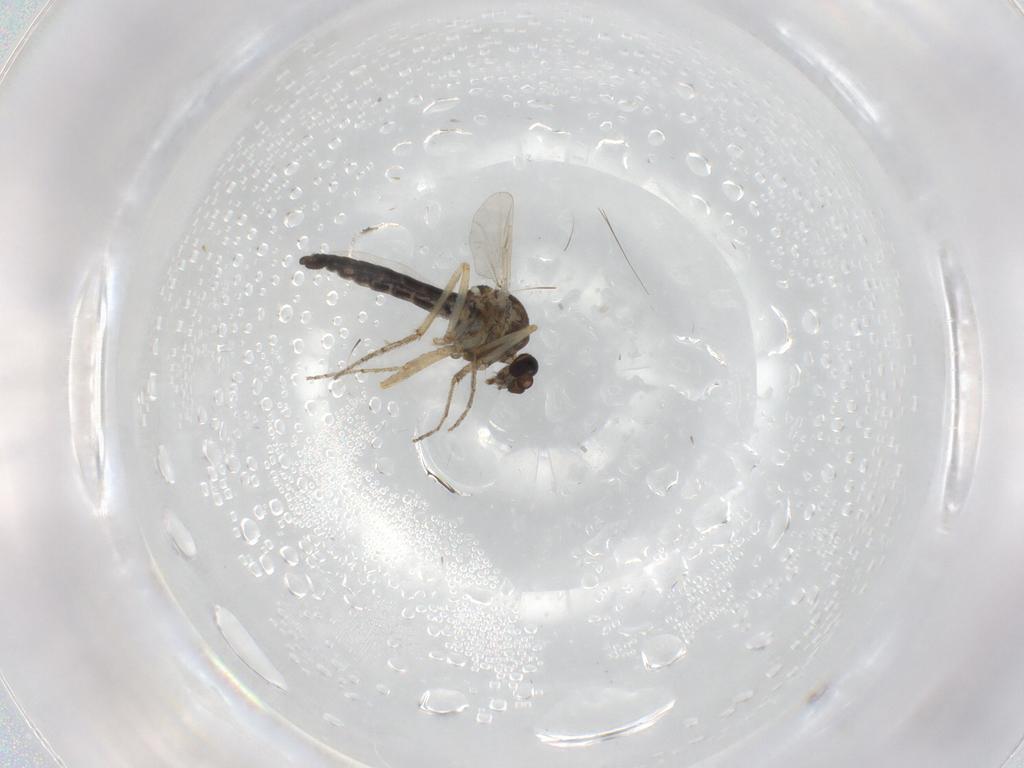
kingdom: Animalia
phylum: Arthropoda
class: Insecta
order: Diptera
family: Ceratopogonidae
